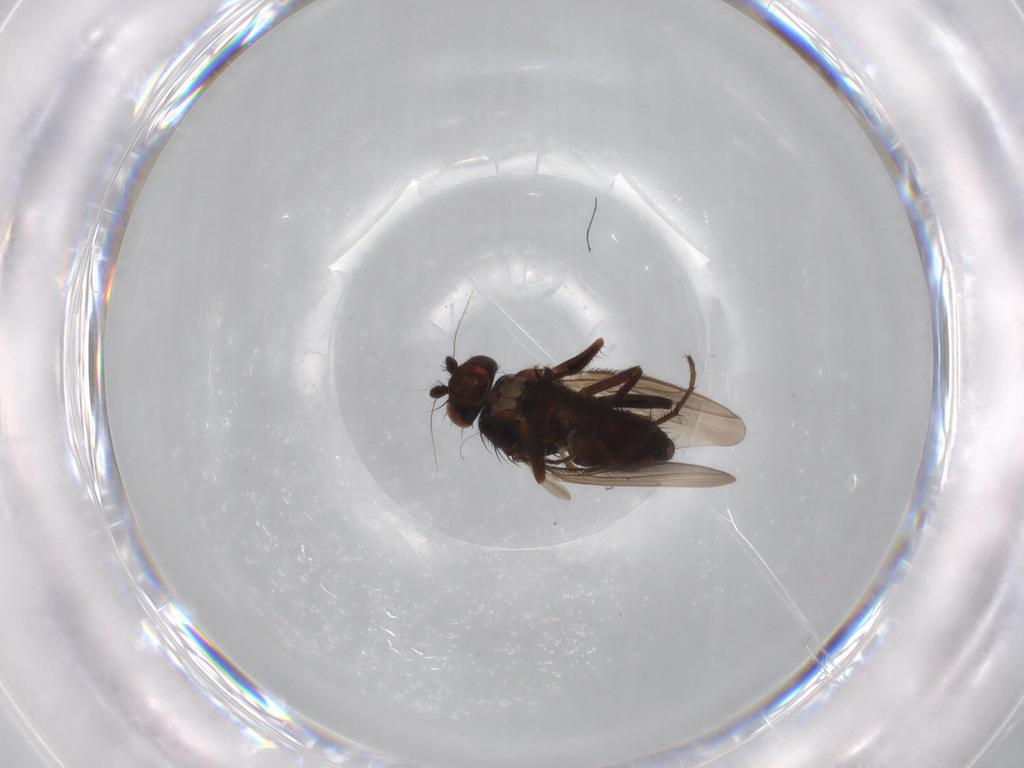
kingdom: Animalia
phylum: Arthropoda
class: Insecta
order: Diptera
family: Sphaeroceridae
